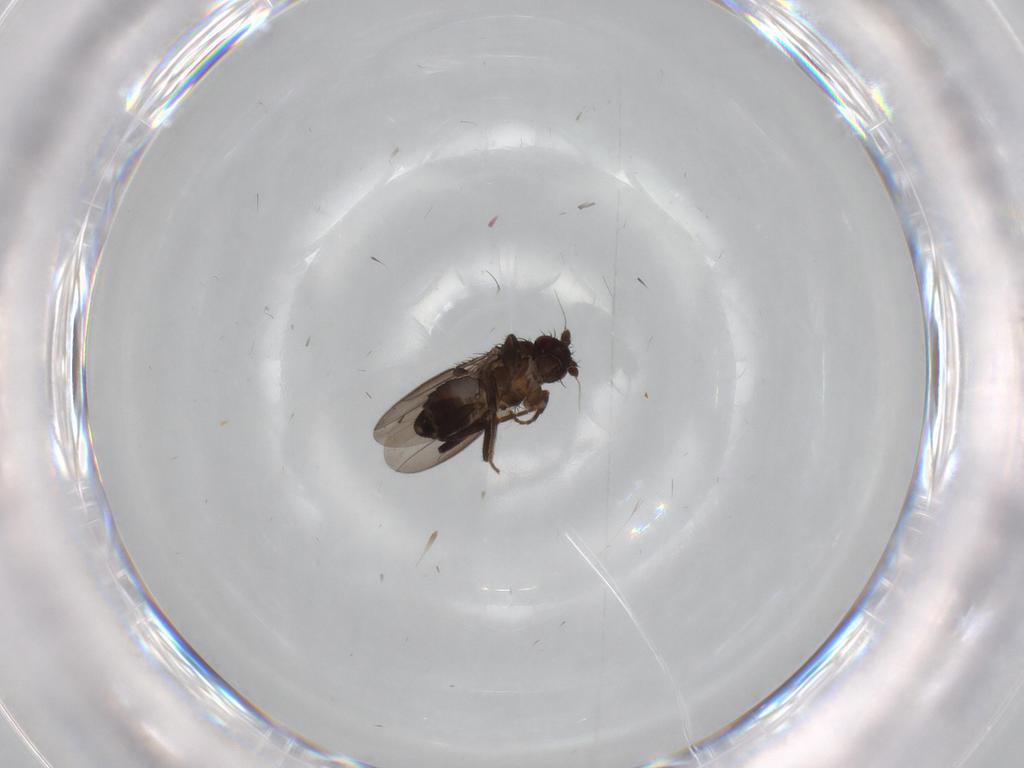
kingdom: Animalia
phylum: Arthropoda
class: Insecta
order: Diptera
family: Sphaeroceridae
